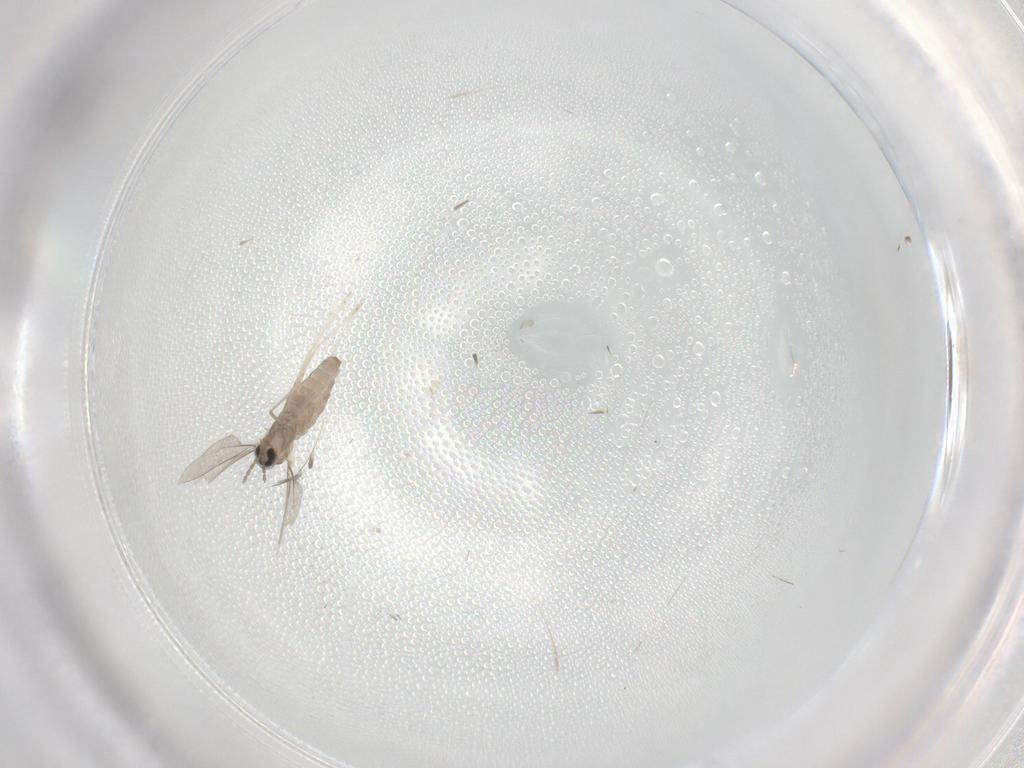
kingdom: Animalia
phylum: Arthropoda
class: Insecta
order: Diptera
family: Cecidomyiidae
